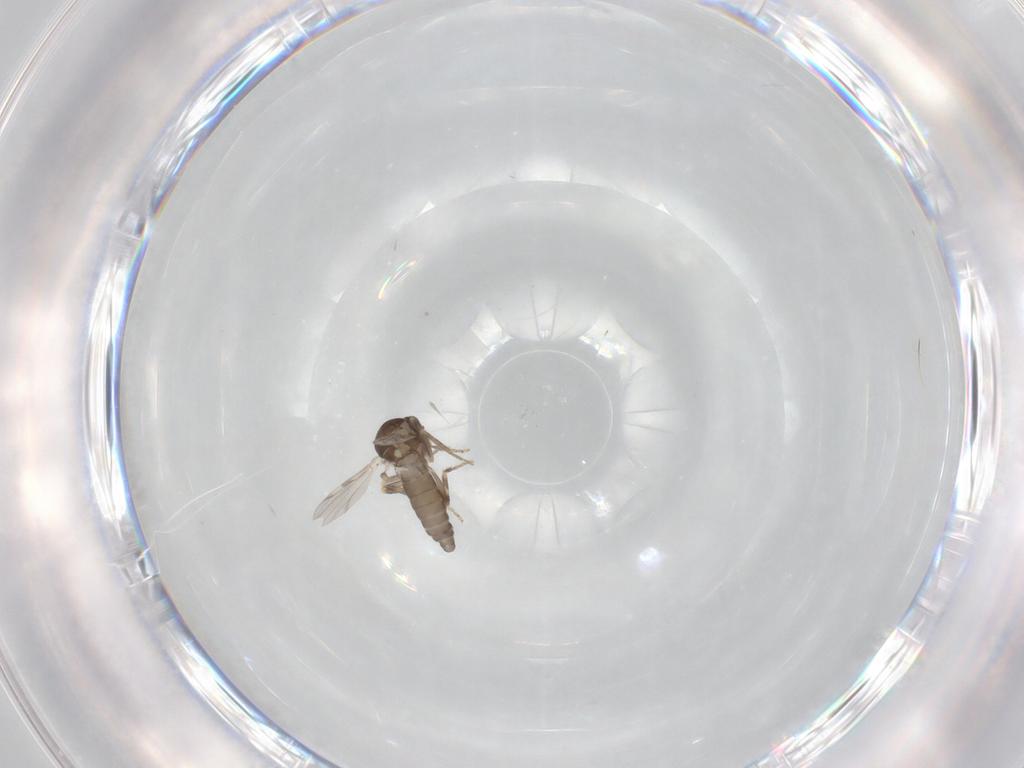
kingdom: Animalia
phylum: Arthropoda
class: Insecta
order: Diptera
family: Ceratopogonidae
